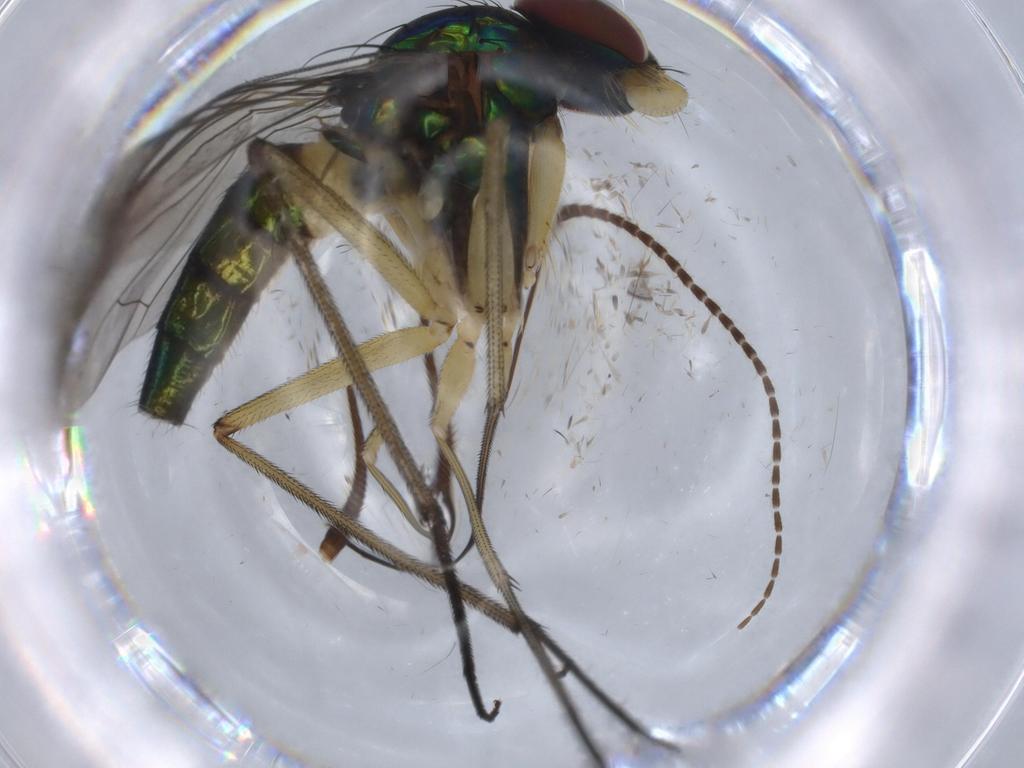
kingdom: Animalia
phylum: Arthropoda
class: Insecta
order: Diptera
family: Dolichopodidae
